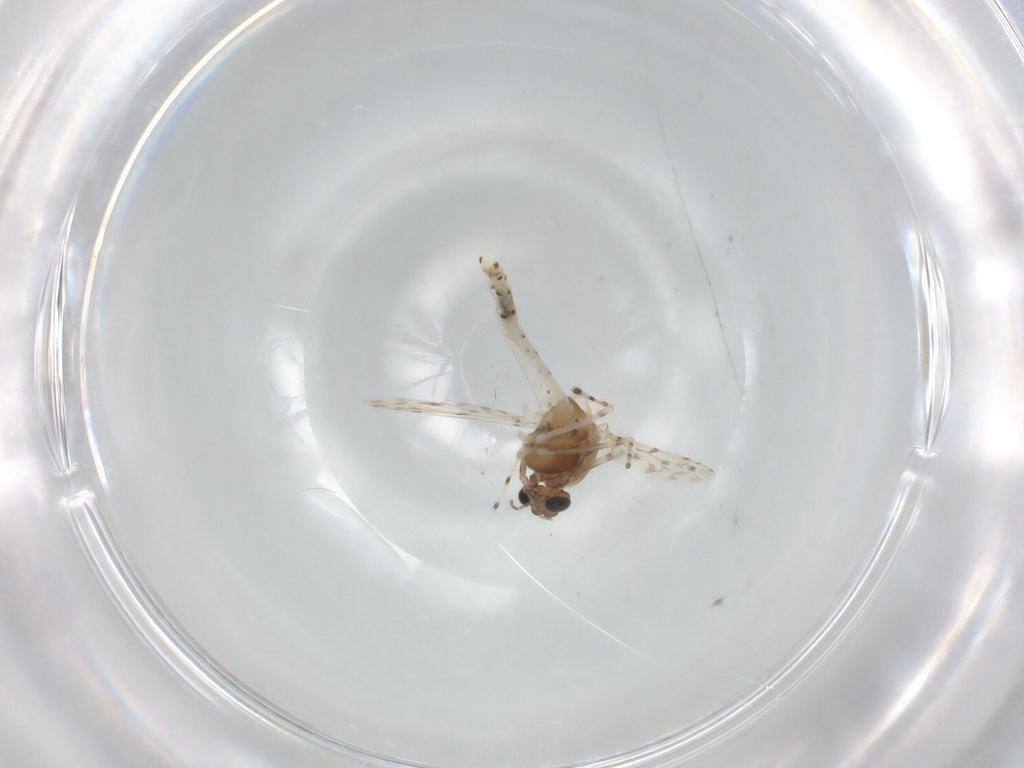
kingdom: Animalia
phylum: Arthropoda
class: Insecta
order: Diptera
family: Chironomidae
